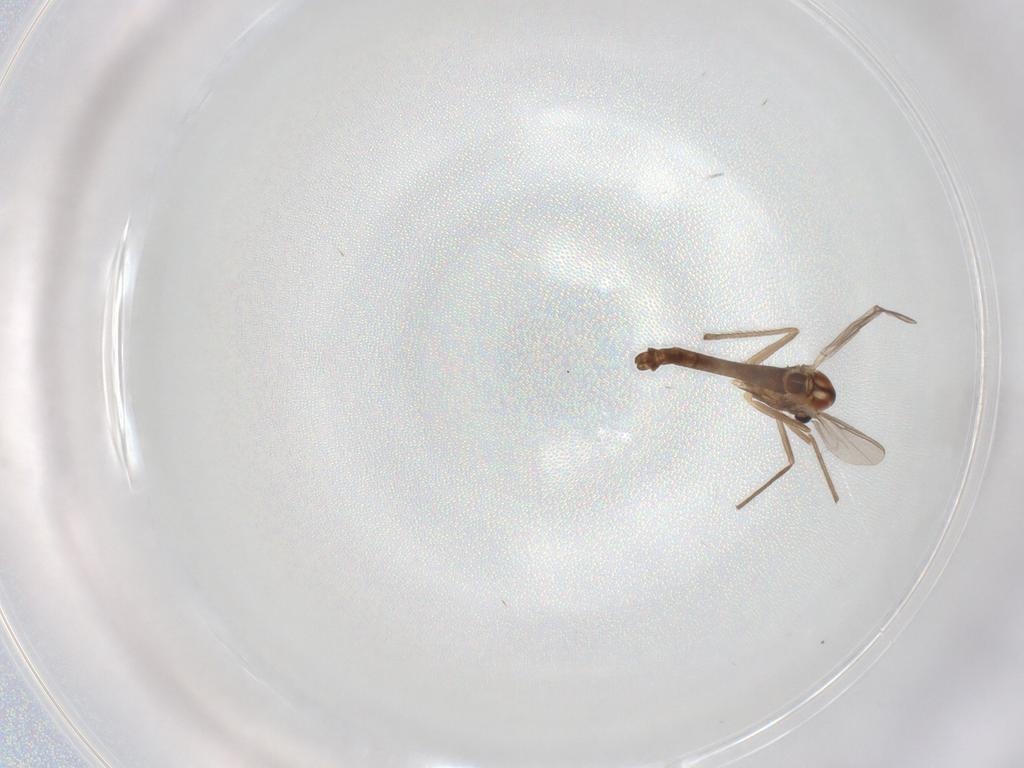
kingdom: Animalia
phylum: Arthropoda
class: Insecta
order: Diptera
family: Chironomidae
